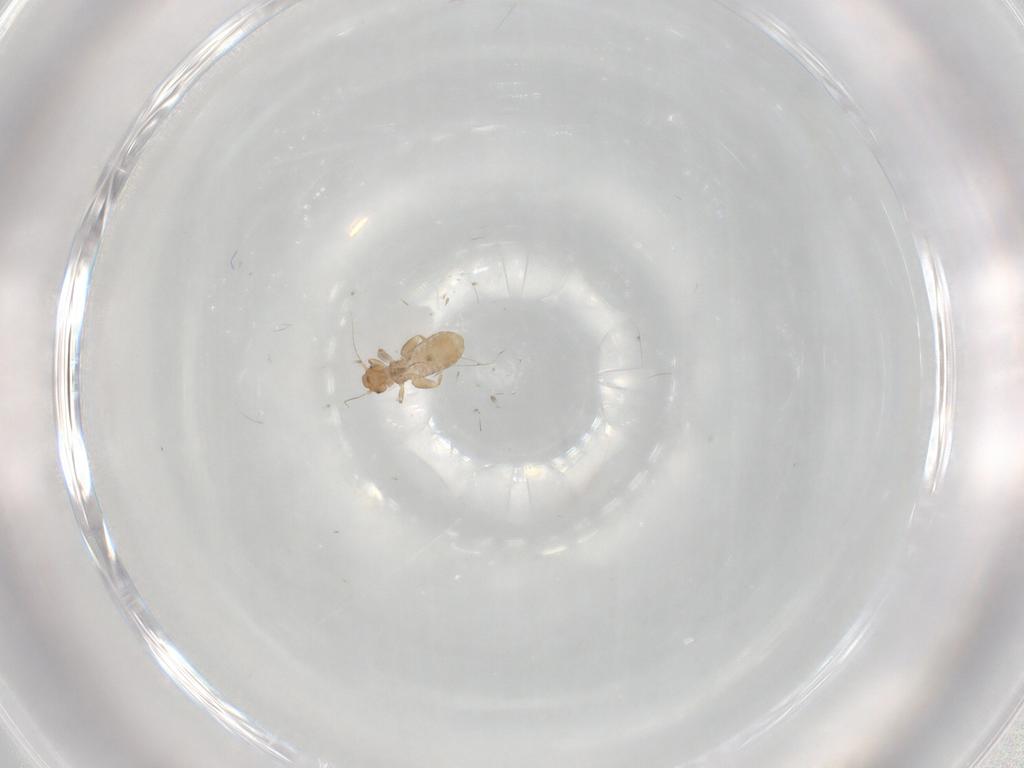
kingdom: Animalia
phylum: Arthropoda
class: Insecta
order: Psocodea
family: Liposcelididae
